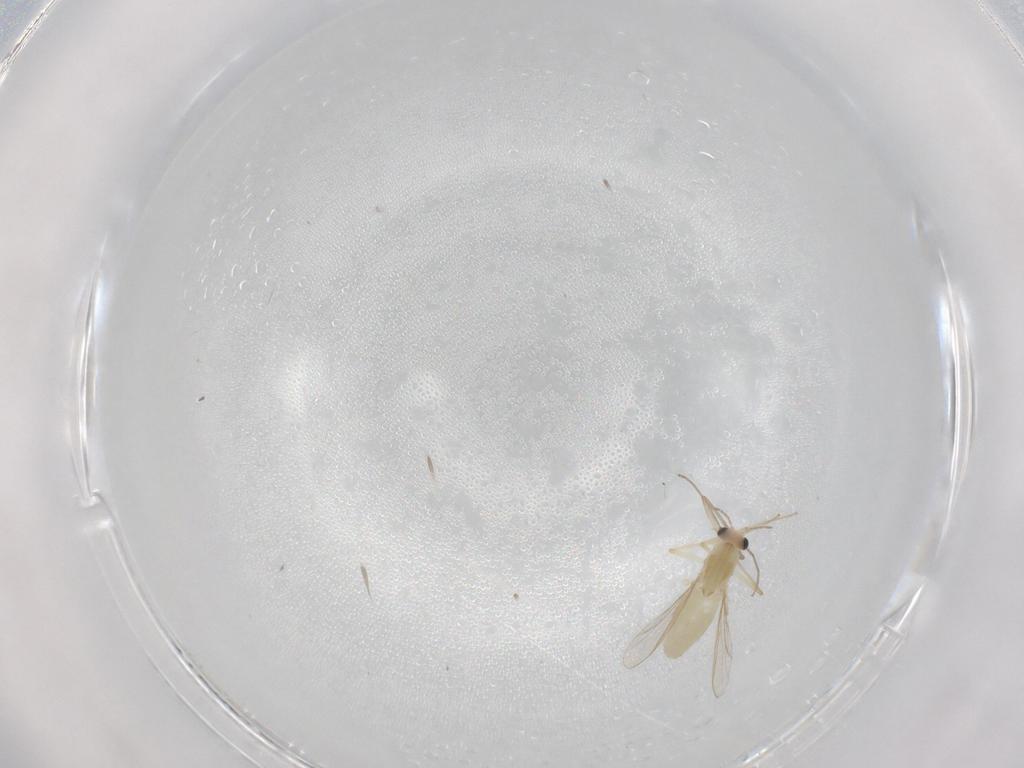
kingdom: Animalia
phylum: Arthropoda
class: Insecta
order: Diptera
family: Chironomidae
